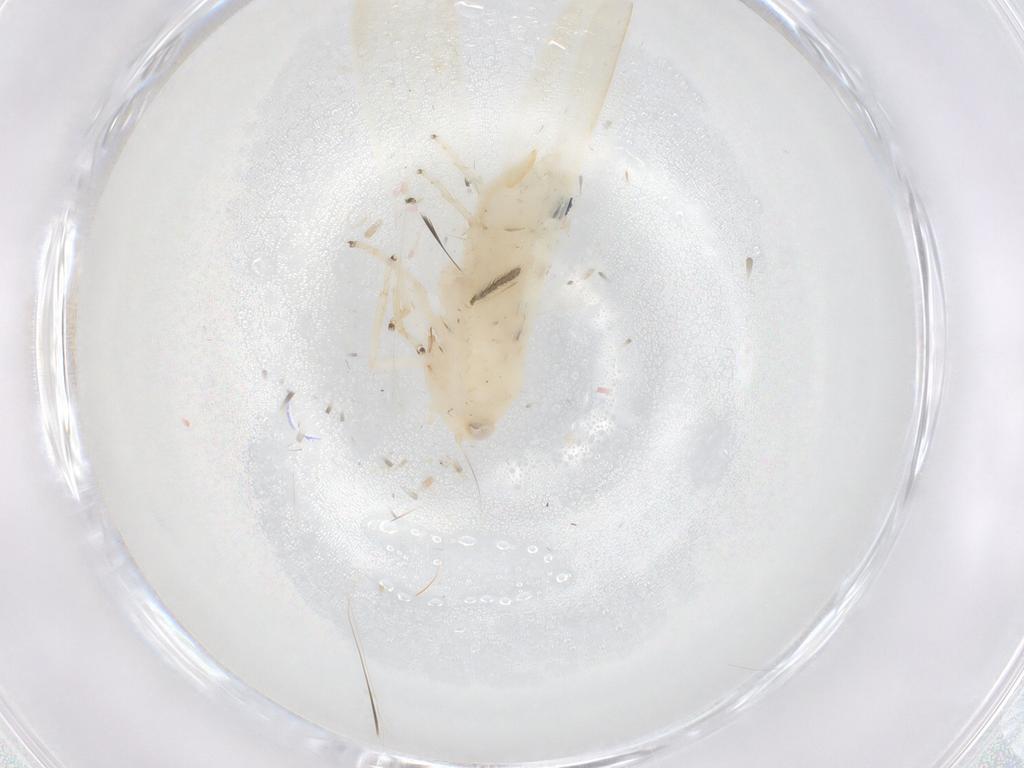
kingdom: Animalia
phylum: Arthropoda
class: Insecta
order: Hemiptera
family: Cicadellidae
